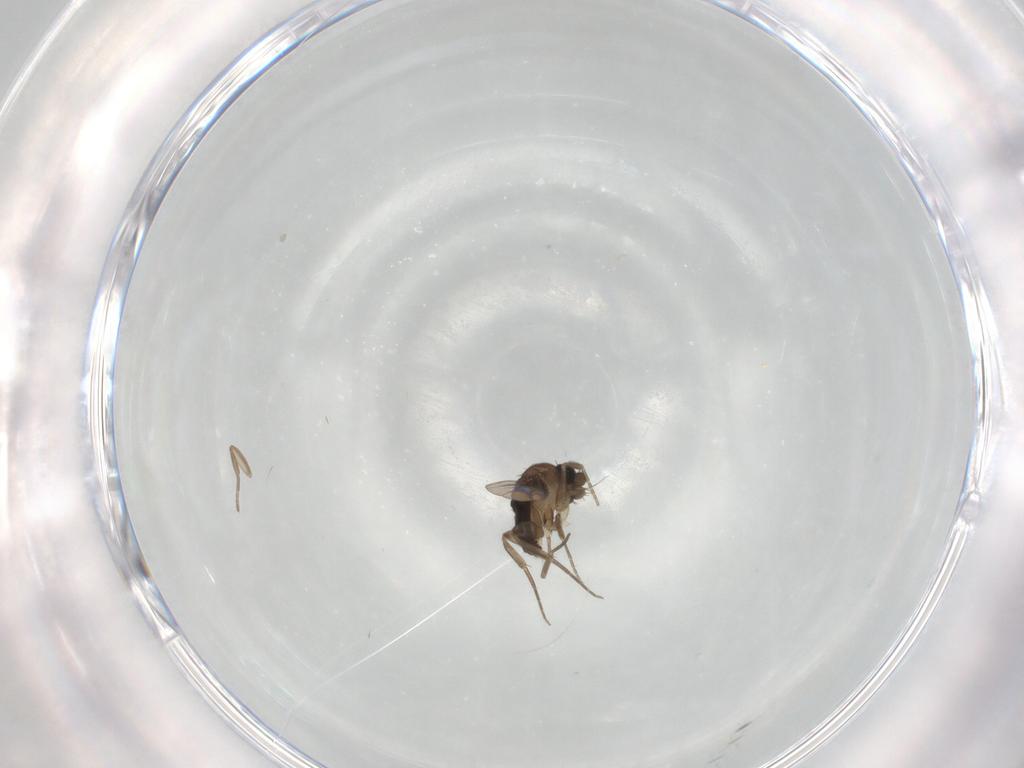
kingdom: Animalia
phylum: Arthropoda
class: Insecta
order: Diptera
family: Phoridae
